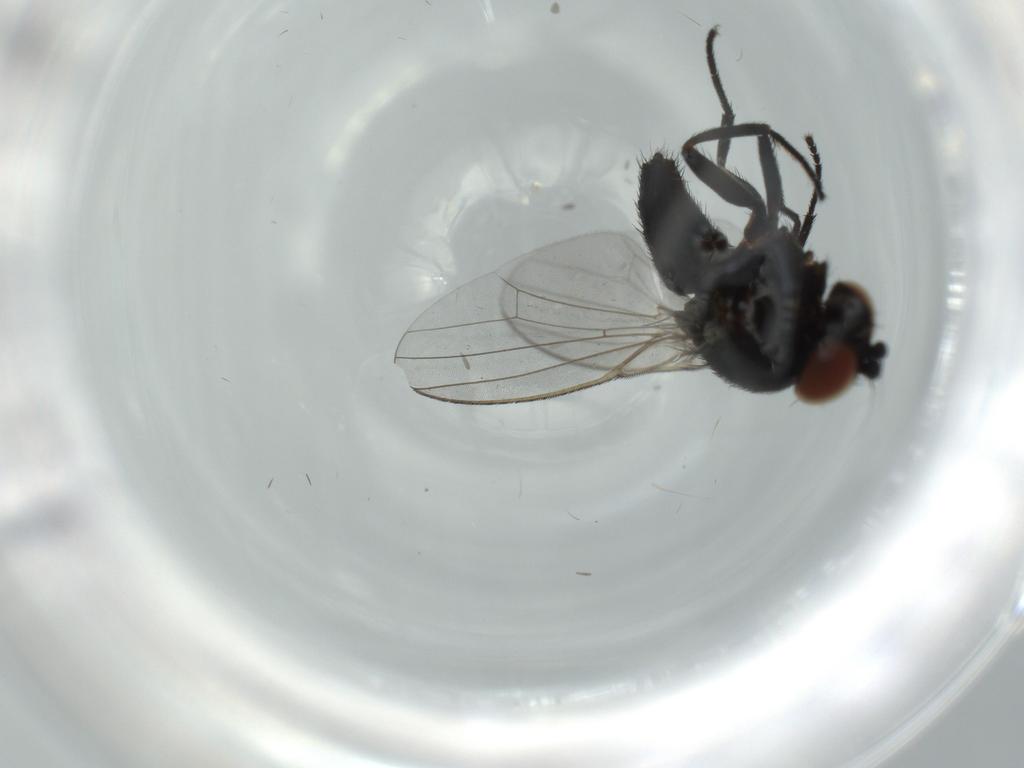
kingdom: Animalia
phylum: Arthropoda
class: Insecta
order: Diptera
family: Milichiidae
